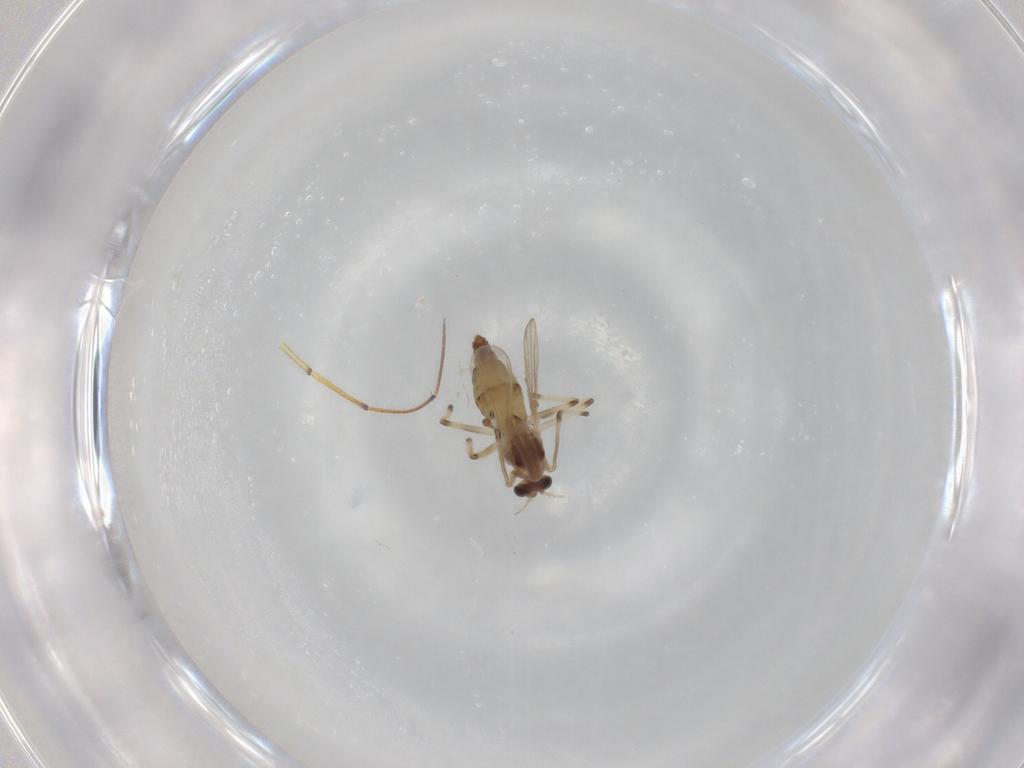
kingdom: Animalia
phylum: Arthropoda
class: Insecta
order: Diptera
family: Chironomidae
